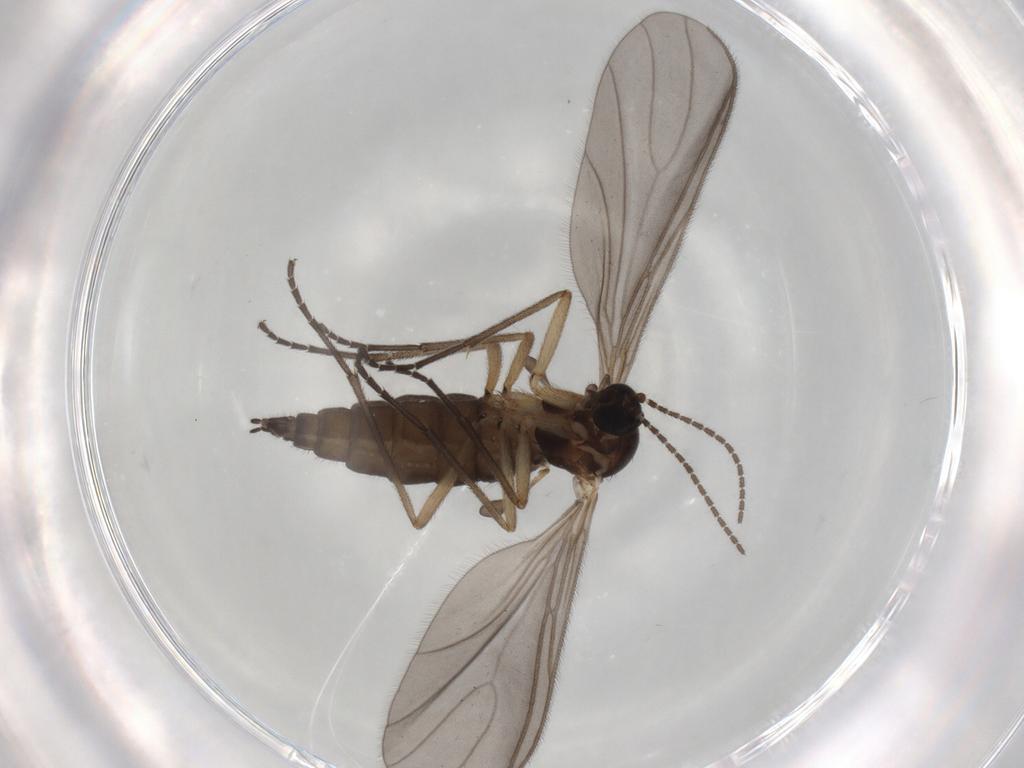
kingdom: Animalia
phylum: Arthropoda
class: Insecta
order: Diptera
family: Sciaridae
